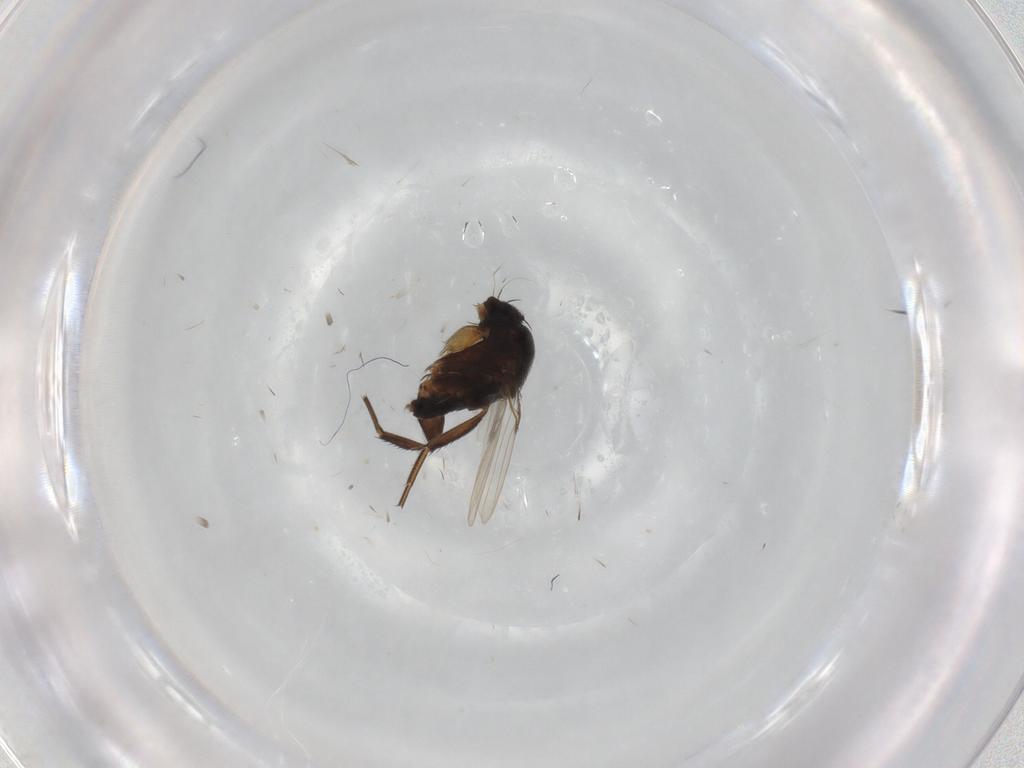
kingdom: Animalia
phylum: Arthropoda
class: Insecta
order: Diptera
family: Phoridae
